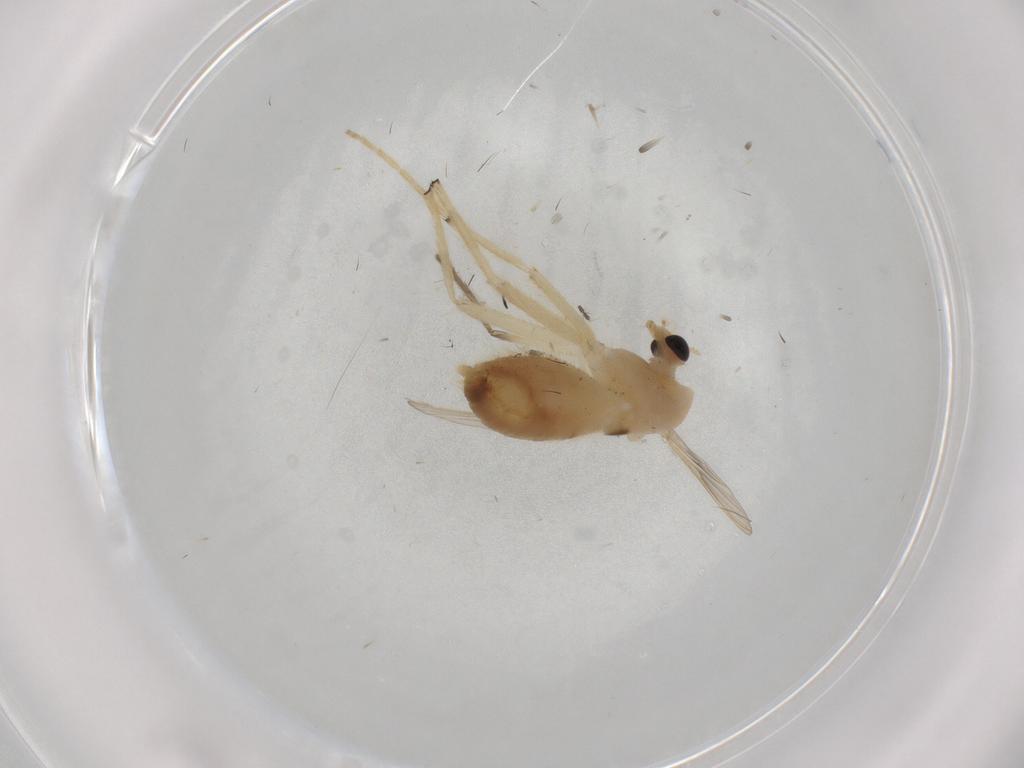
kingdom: Animalia
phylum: Arthropoda
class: Insecta
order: Diptera
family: Chironomidae
